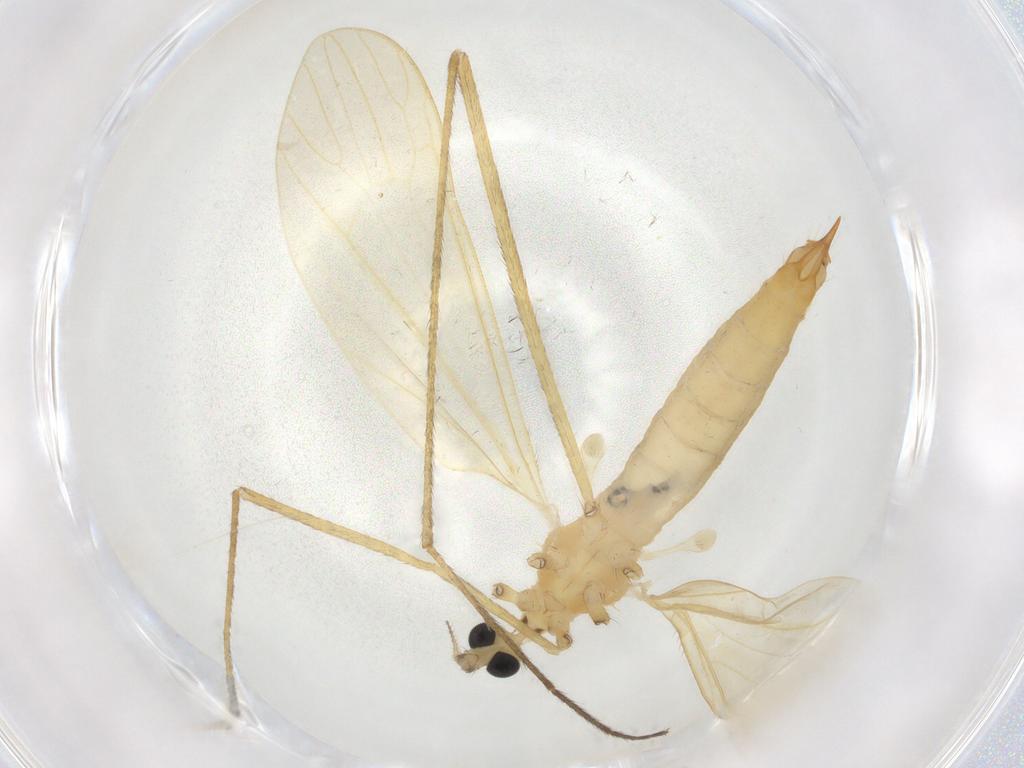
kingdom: Animalia
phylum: Arthropoda
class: Insecta
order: Diptera
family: Limoniidae
